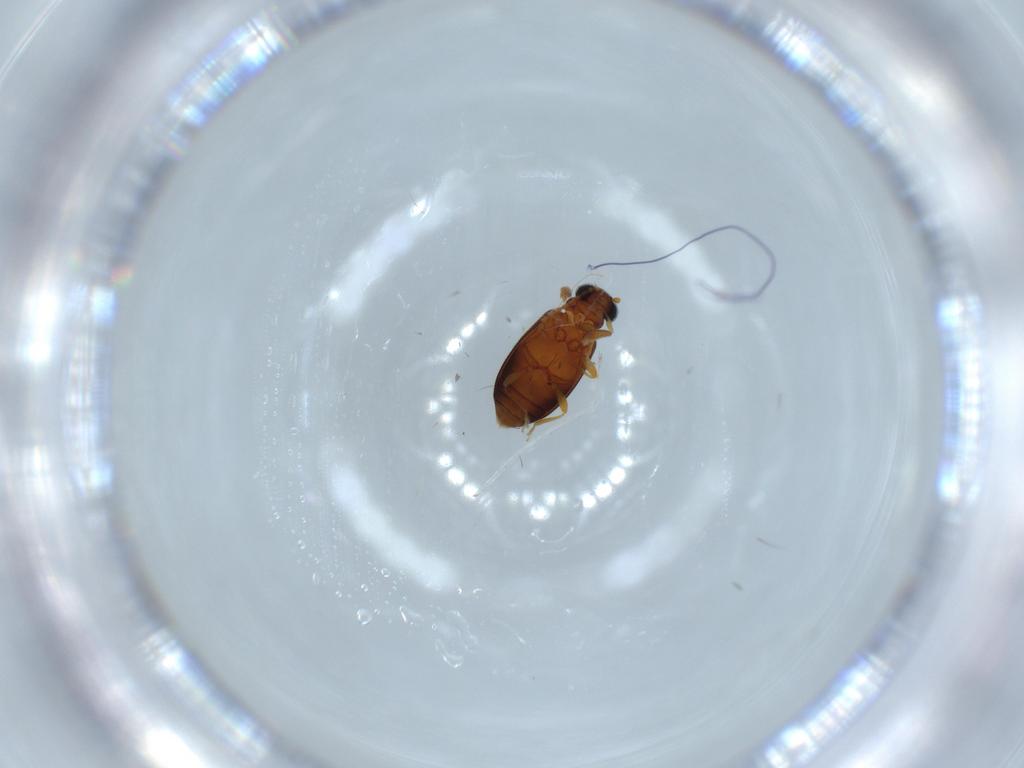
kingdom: Animalia
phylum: Arthropoda
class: Insecta
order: Coleoptera
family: Aderidae
